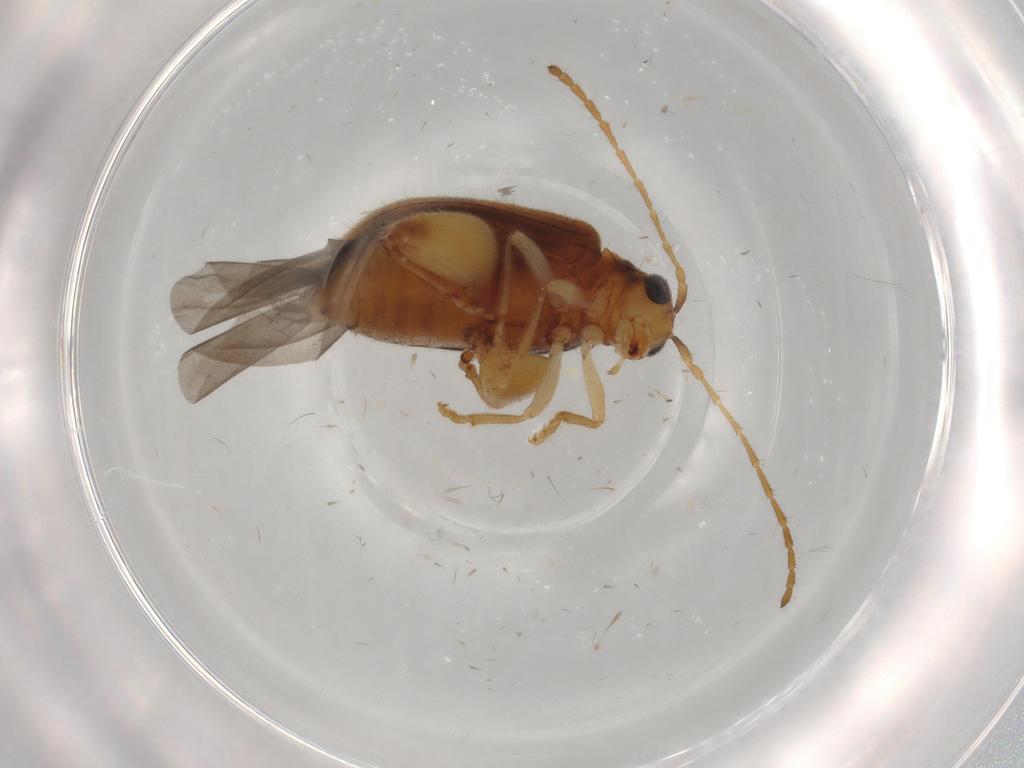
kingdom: Animalia
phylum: Arthropoda
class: Insecta
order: Coleoptera
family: Chrysomelidae
